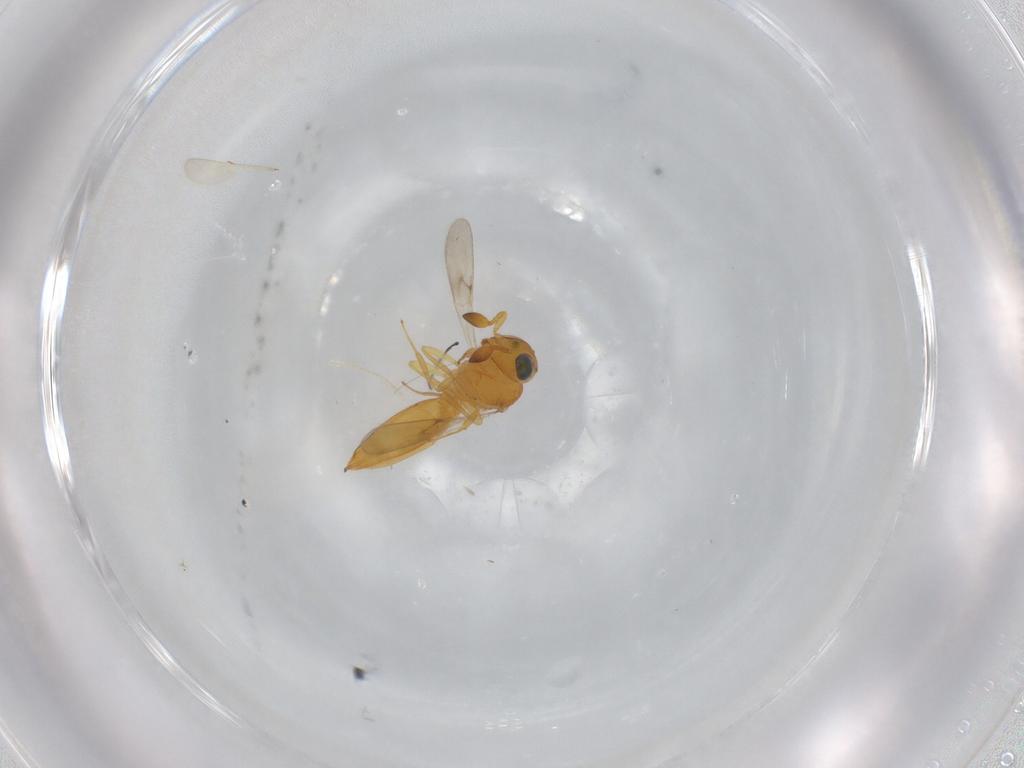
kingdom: Animalia
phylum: Arthropoda
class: Insecta
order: Hymenoptera
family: Scelionidae
